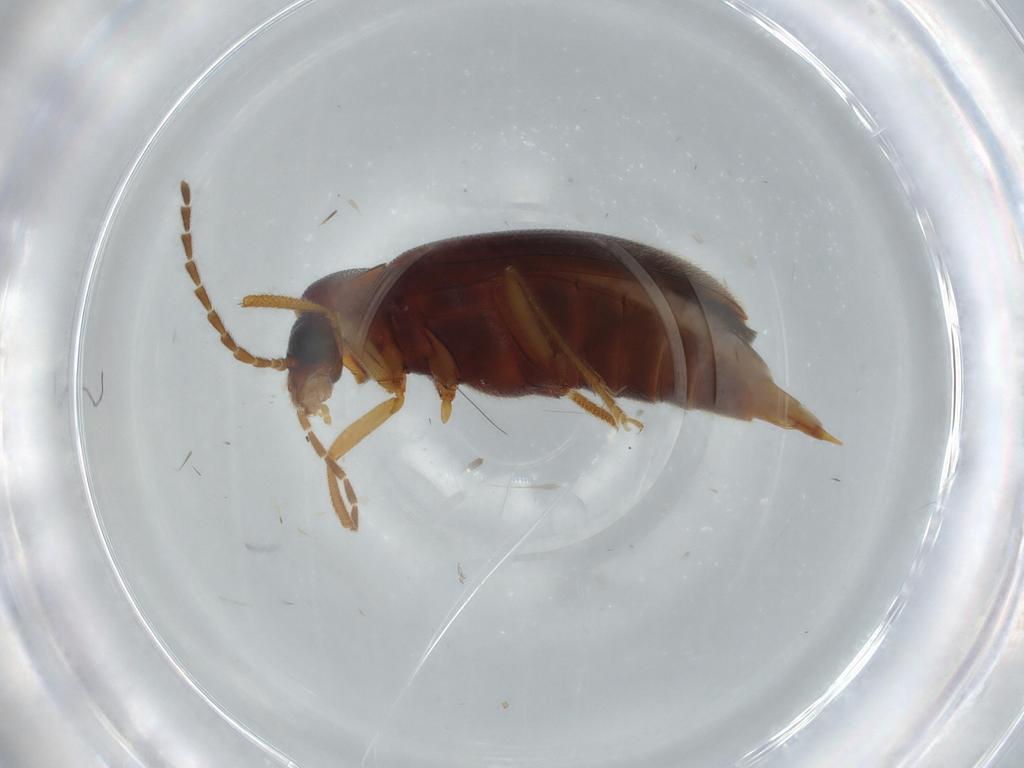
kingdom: Animalia
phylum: Arthropoda
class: Insecta
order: Coleoptera
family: Ptilodactylidae
